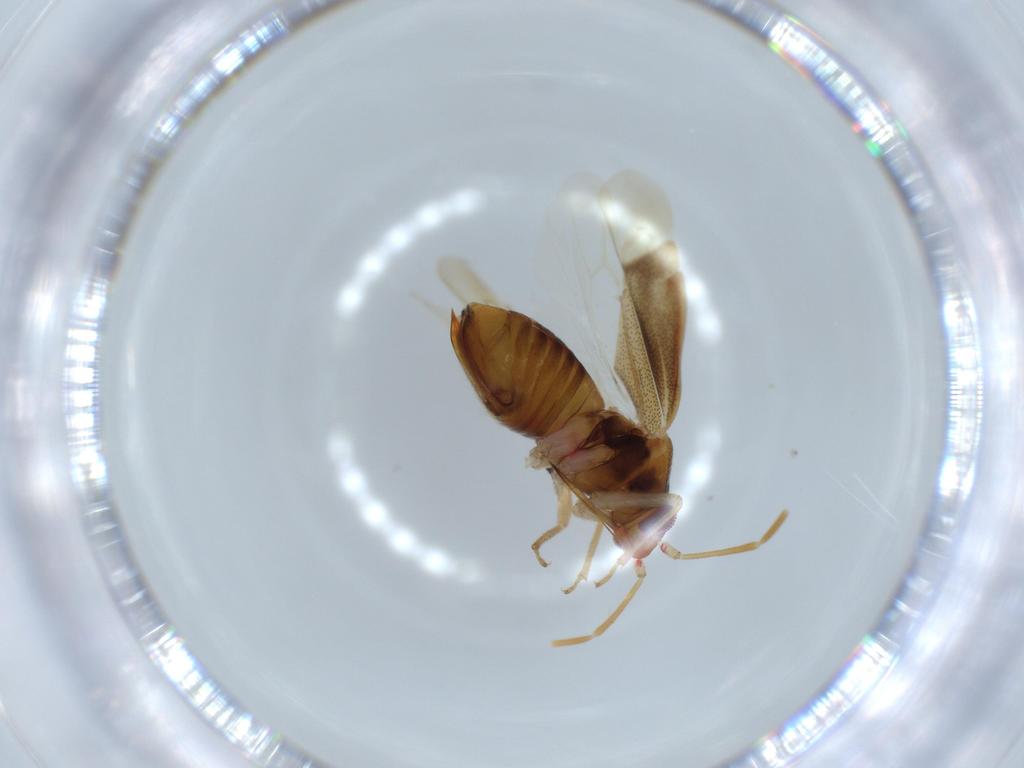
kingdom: Animalia
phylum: Arthropoda
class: Insecta
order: Hemiptera
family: Miridae
